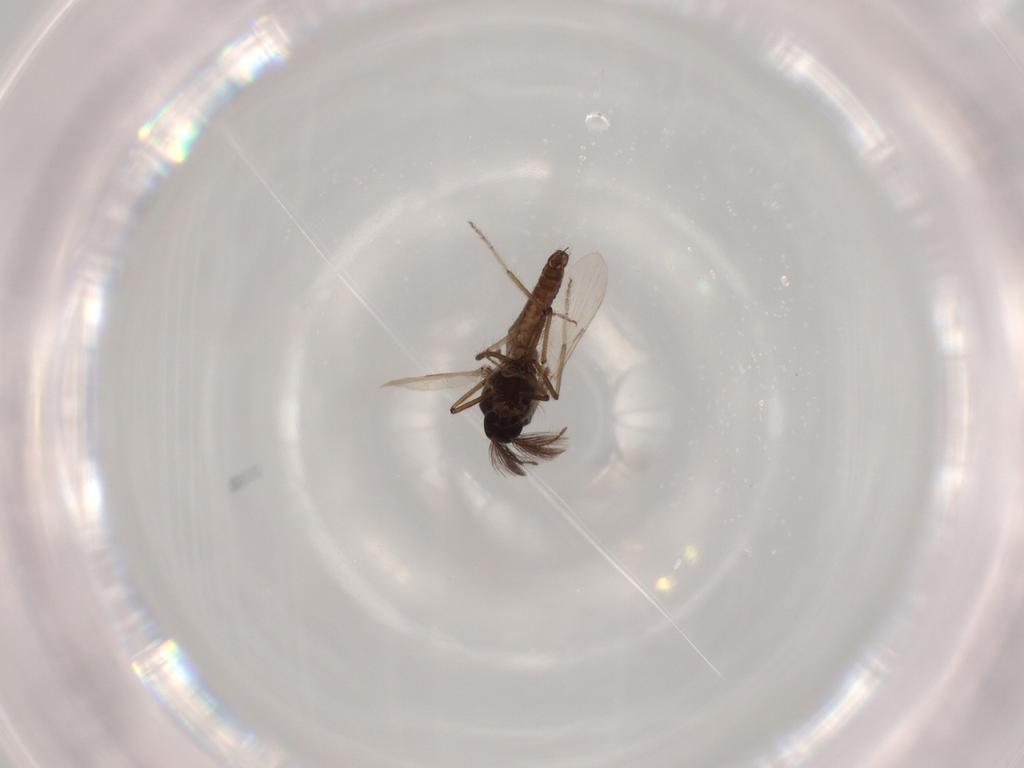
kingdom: Animalia
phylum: Arthropoda
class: Insecta
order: Diptera
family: Chironomidae
